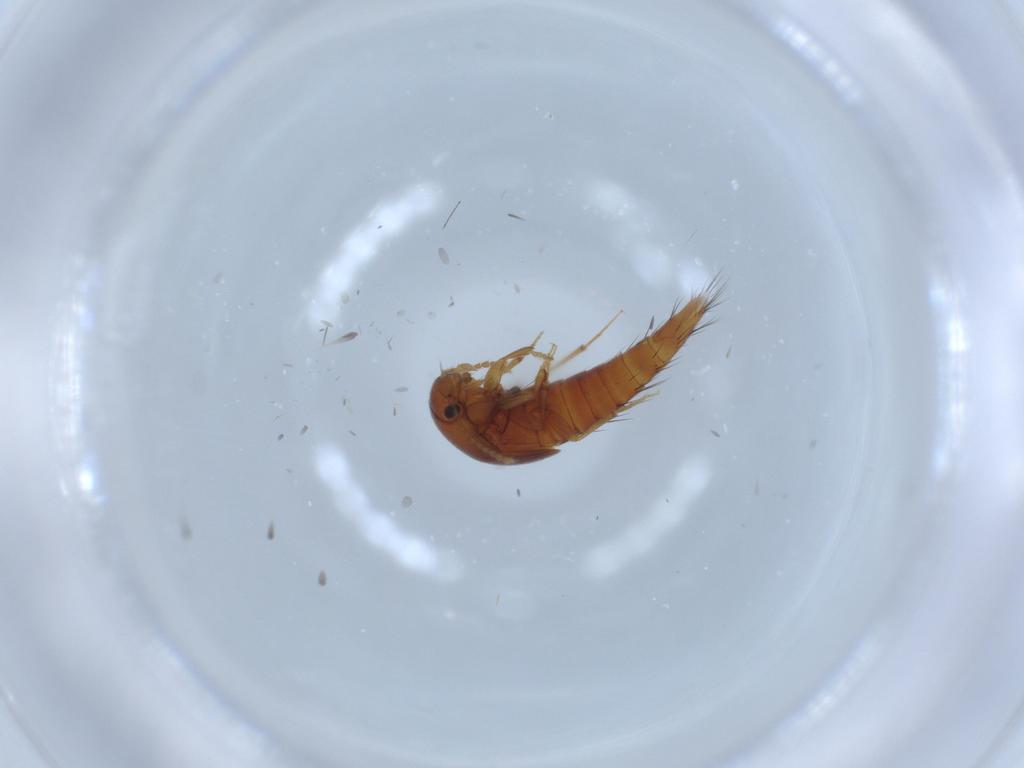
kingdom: Animalia
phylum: Arthropoda
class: Insecta
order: Coleoptera
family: Staphylinidae
